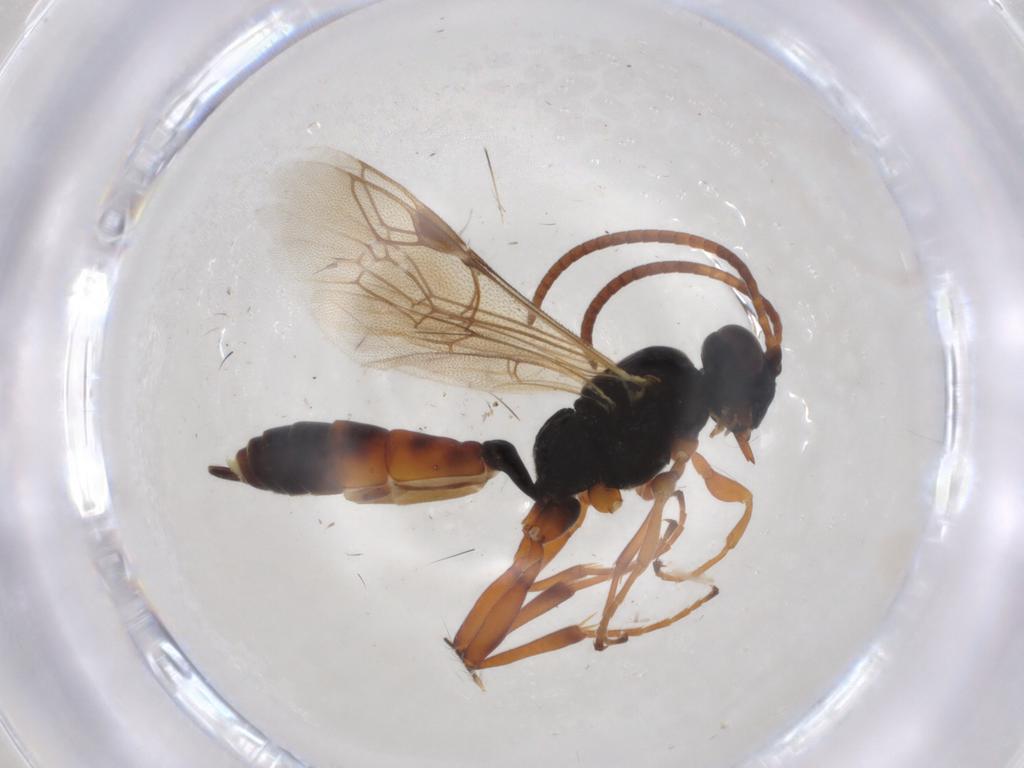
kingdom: Animalia
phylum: Arthropoda
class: Insecta
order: Hymenoptera
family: Ichneumonidae
